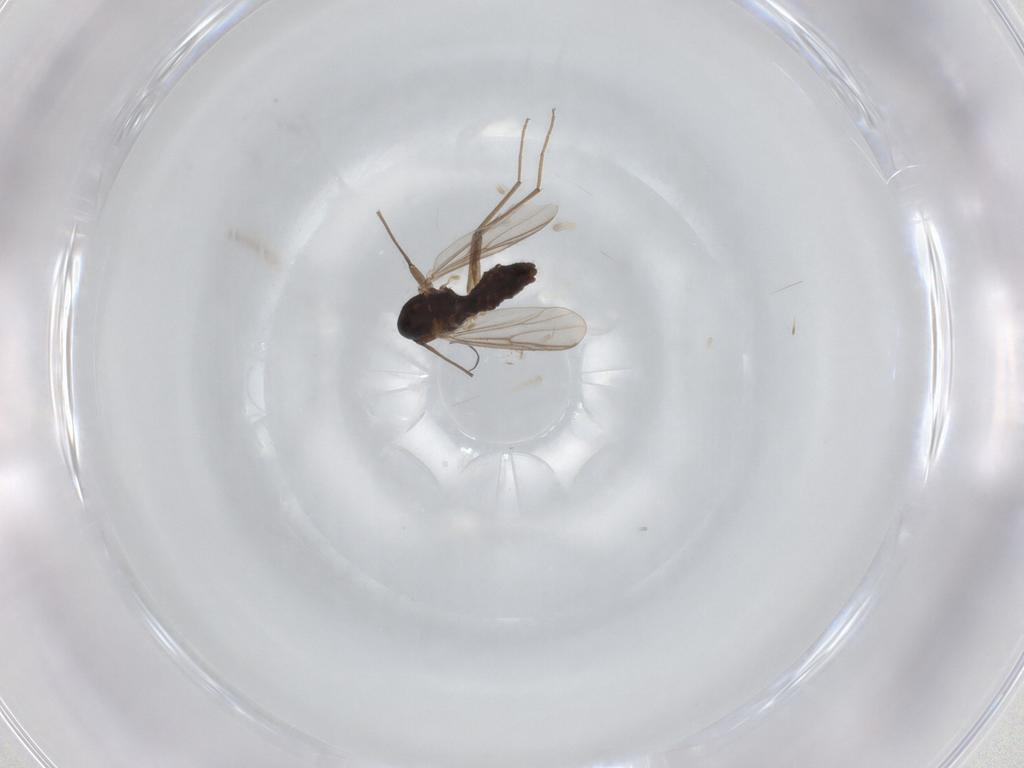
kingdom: Animalia
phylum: Arthropoda
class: Insecta
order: Diptera
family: Chironomidae
